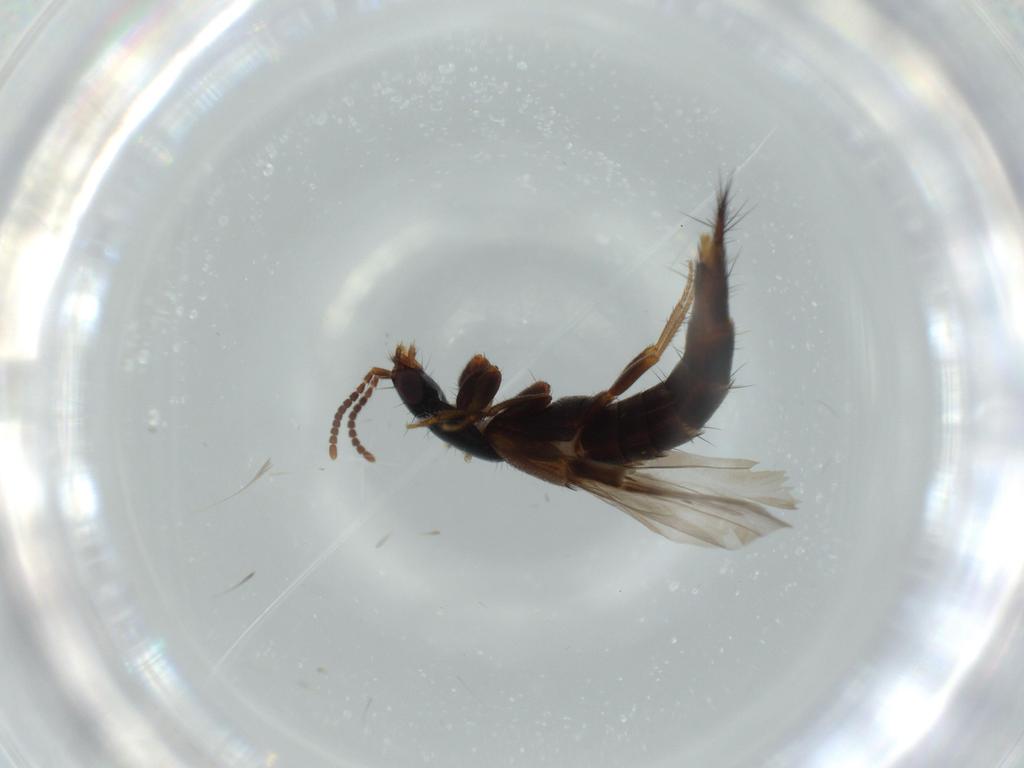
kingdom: Animalia
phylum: Arthropoda
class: Insecta
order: Coleoptera
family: Staphylinidae
